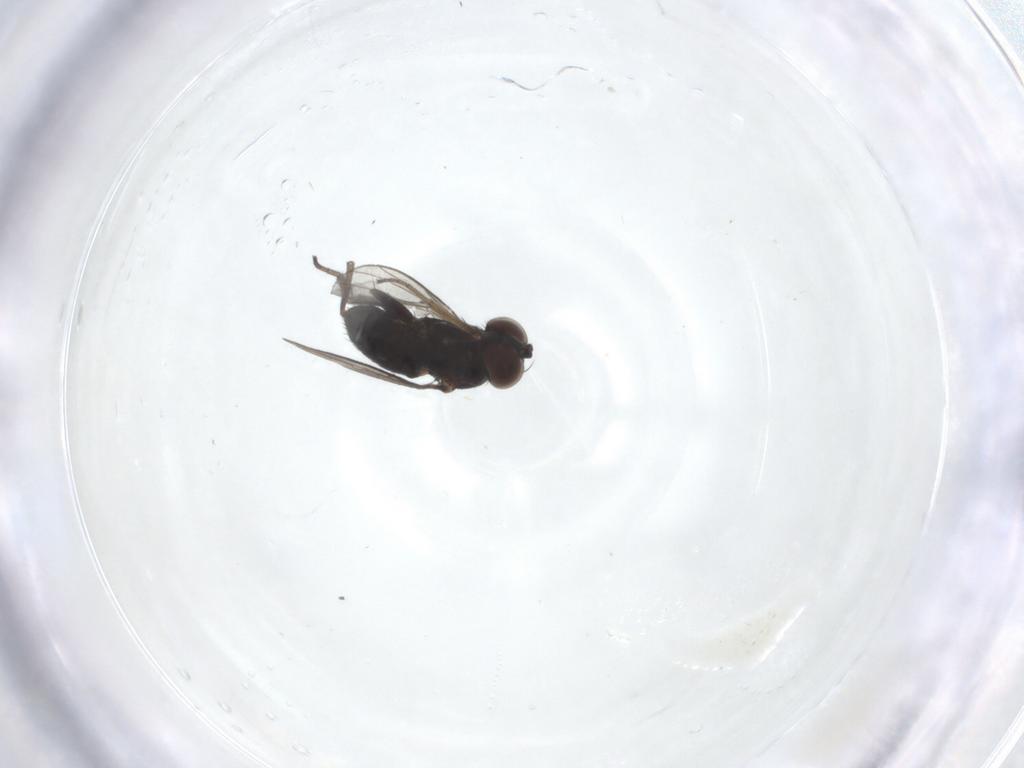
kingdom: Animalia
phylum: Arthropoda
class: Insecta
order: Diptera
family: Dolichopodidae
